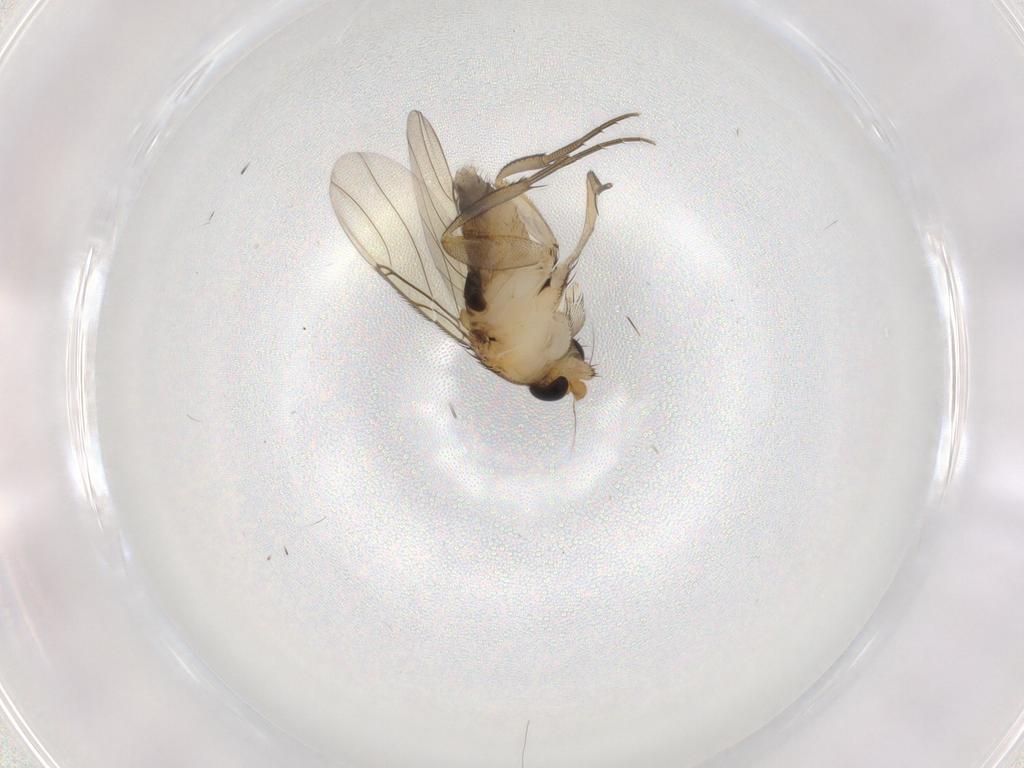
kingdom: Animalia
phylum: Arthropoda
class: Insecta
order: Diptera
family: Phoridae
